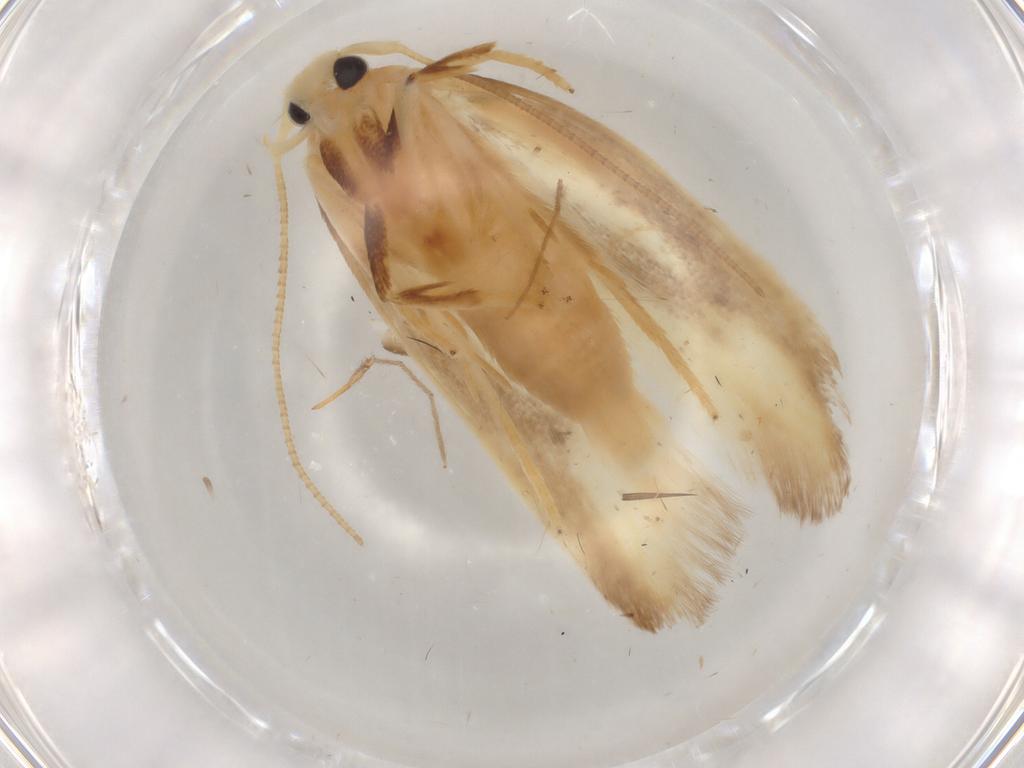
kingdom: Animalia
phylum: Arthropoda
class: Insecta
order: Lepidoptera
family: Gelechiidae
